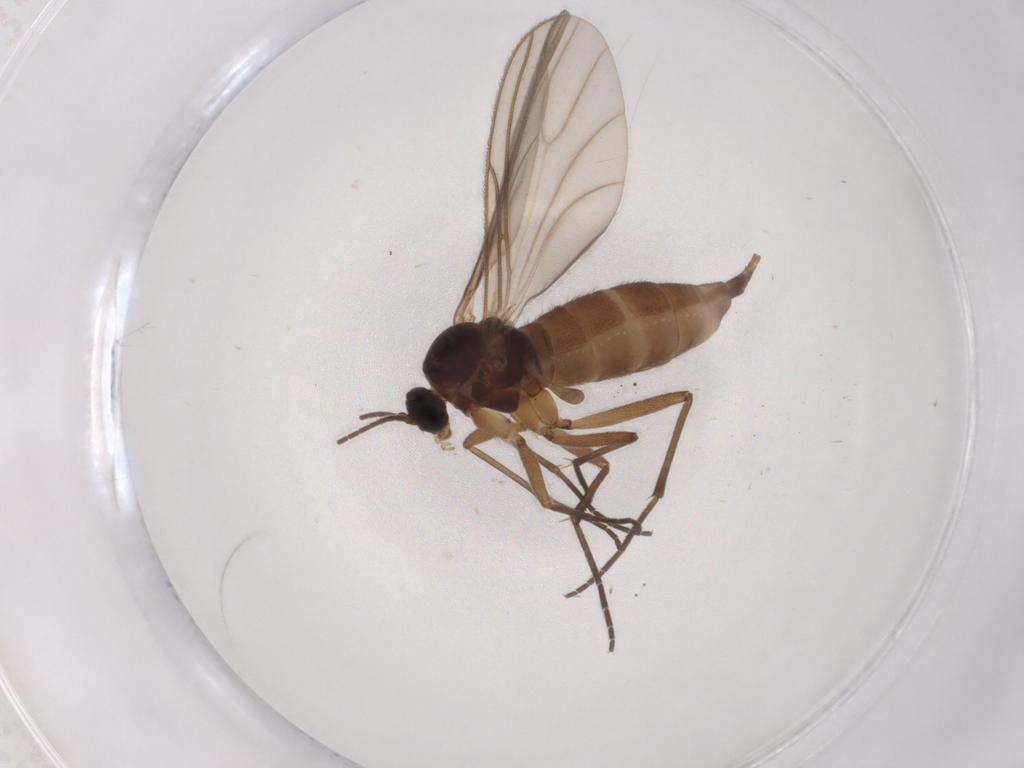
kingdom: Animalia
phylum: Arthropoda
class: Insecta
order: Diptera
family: Sciaridae
